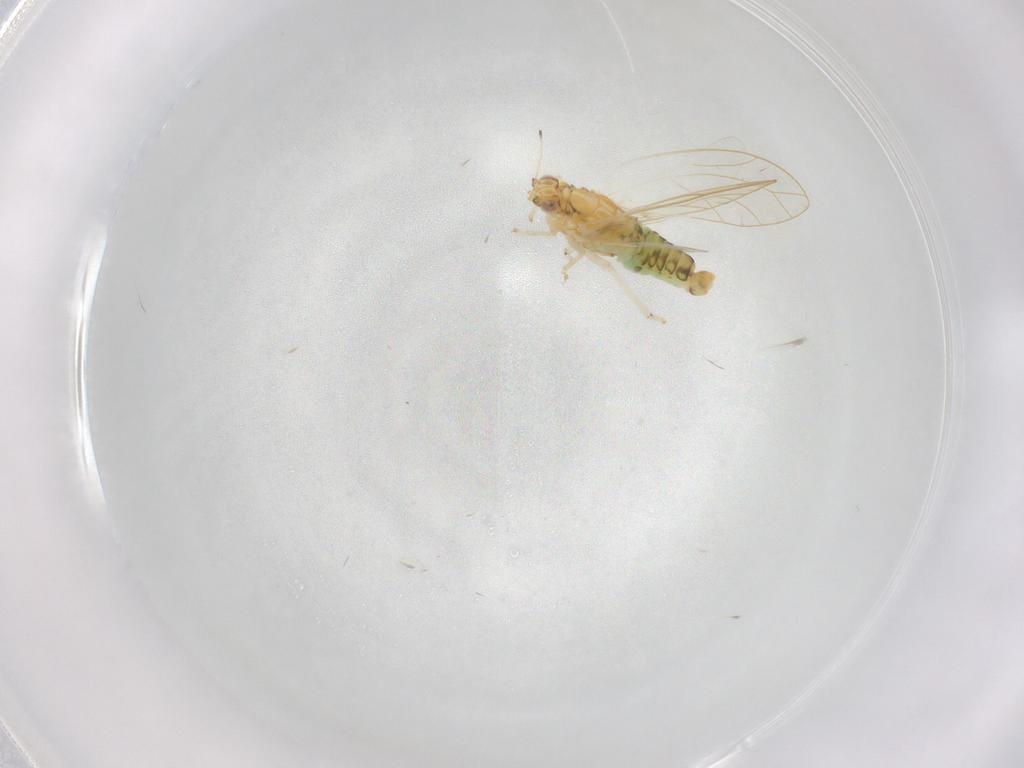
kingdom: Animalia
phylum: Arthropoda
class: Insecta
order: Hemiptera
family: Triozidae
